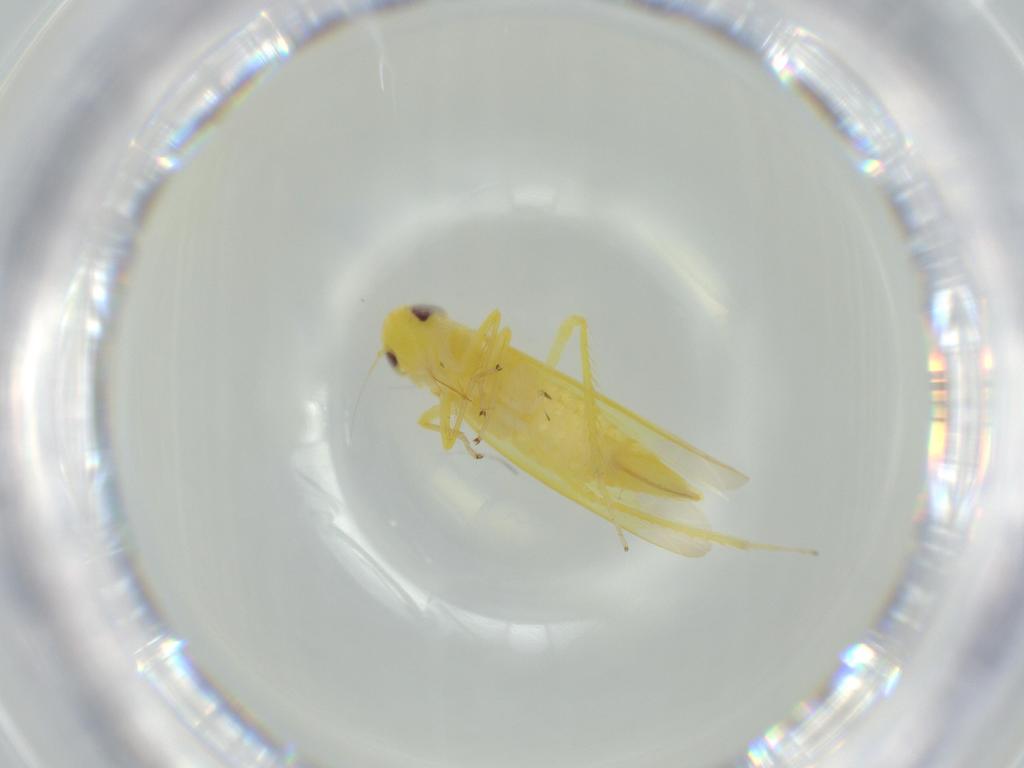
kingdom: Animalia
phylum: Arthropoda
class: Insecta
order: Hemiptera
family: Aleyrodidae
